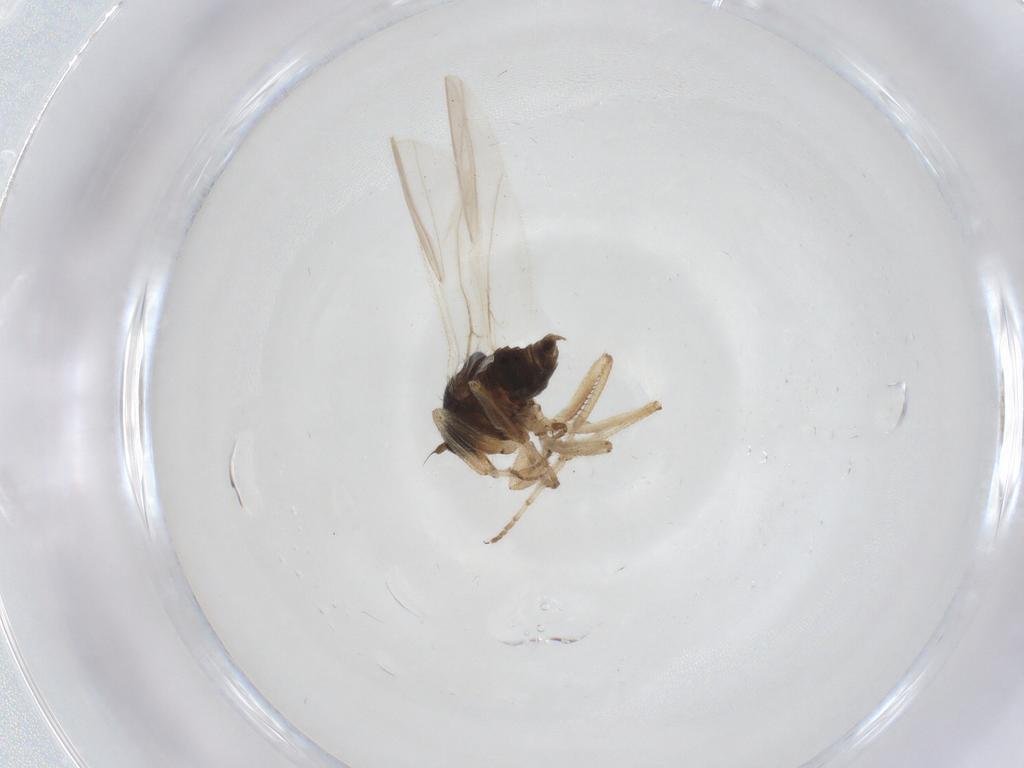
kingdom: Animalia
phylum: Arthropoda
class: Insecta
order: Diptera
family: Hybotidae
